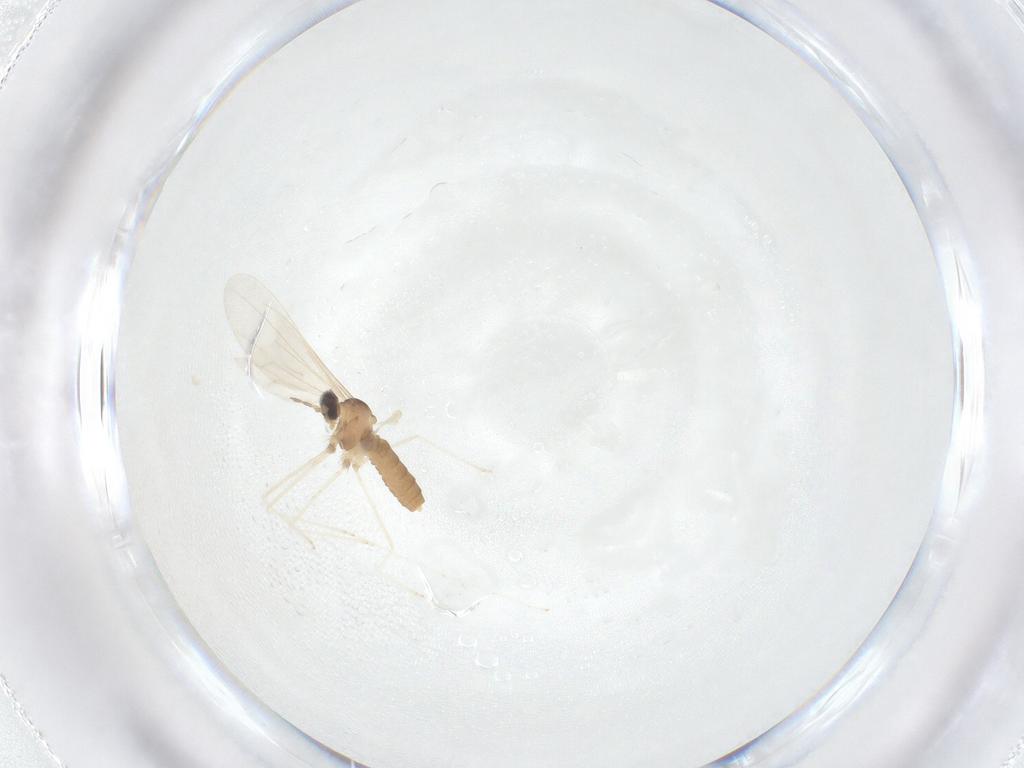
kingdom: Animalia
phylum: Arthropoda
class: Insecta
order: Diptera
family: Cecidomyiidae
